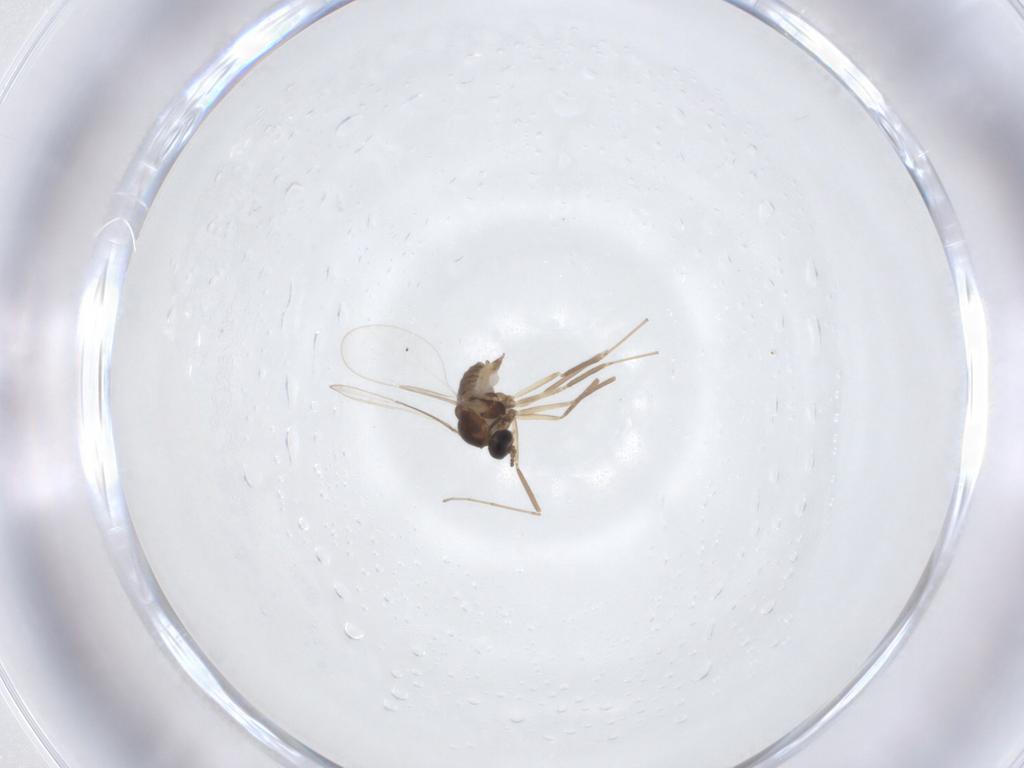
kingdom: Animalia
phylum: Arthropoda
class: Insecta
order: Diptera
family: Cecidomyiidae
